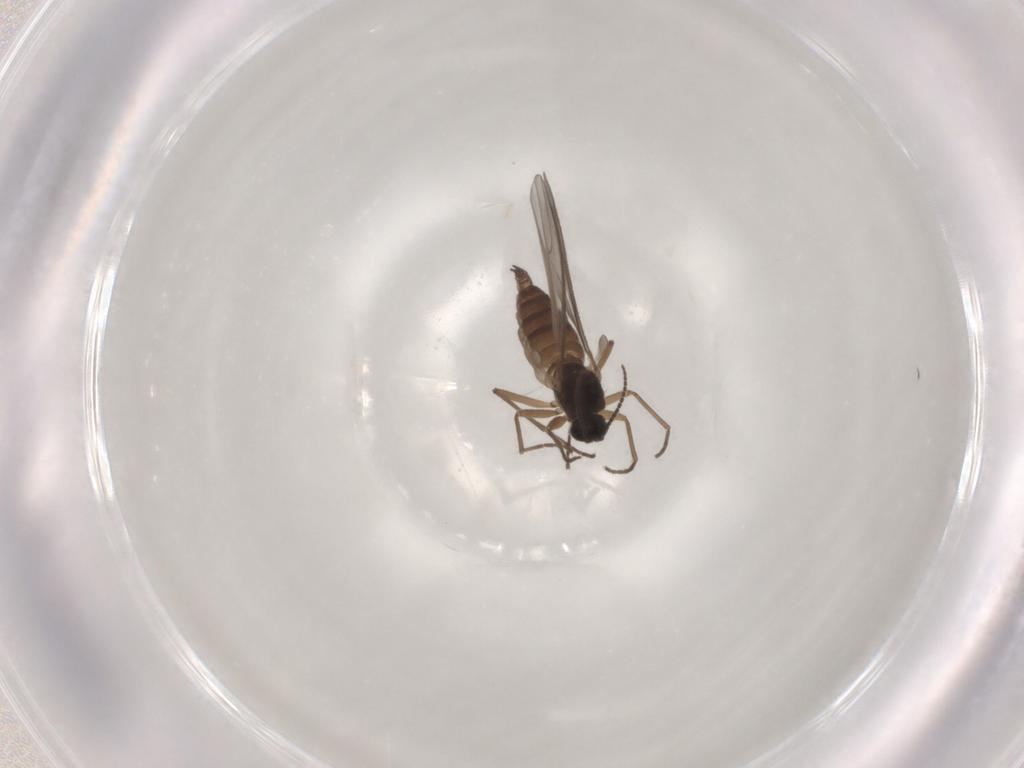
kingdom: Animalia
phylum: Arthropoda
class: Insecta
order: Diptera
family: Sciaridae
